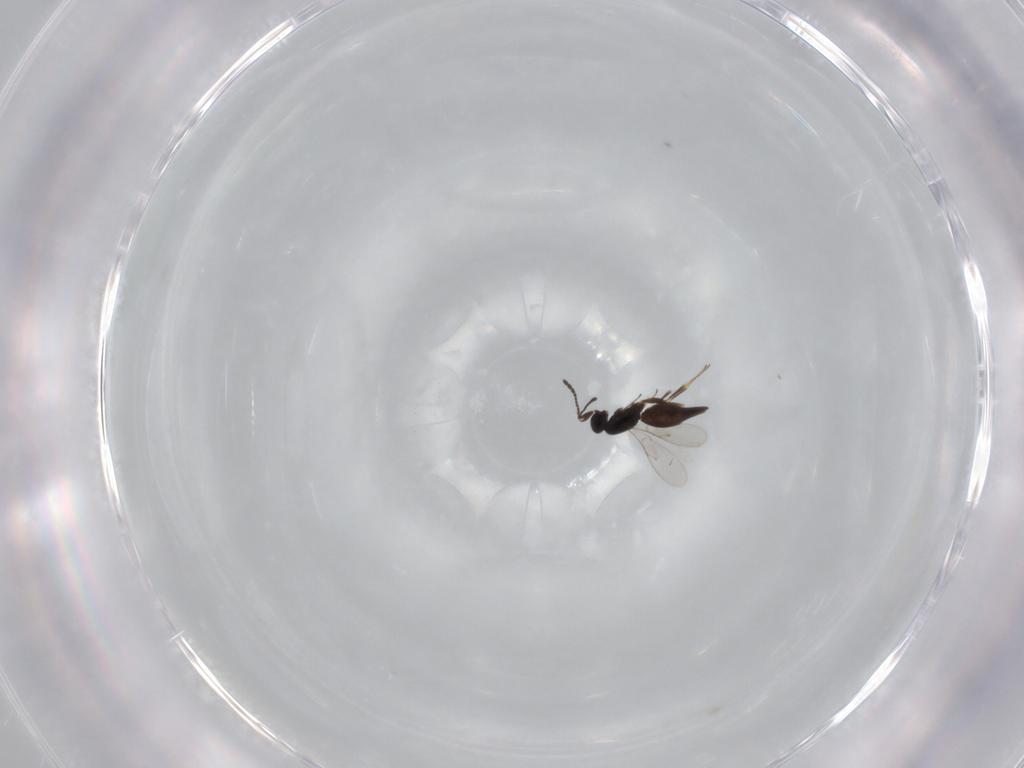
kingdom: Animalia
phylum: Arthropoda
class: Insecta
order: Hymenoptera
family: Scelionidae
